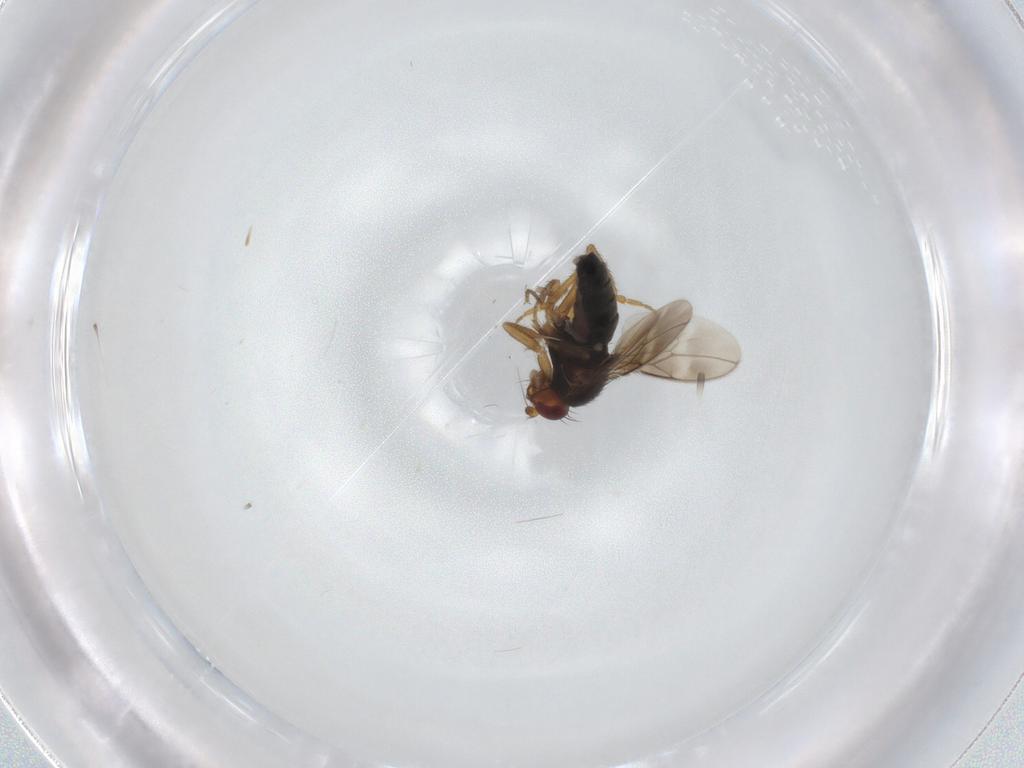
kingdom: Animalia
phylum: Arthropoda
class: Insecta
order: Diptera
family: Sphaeroceridae
